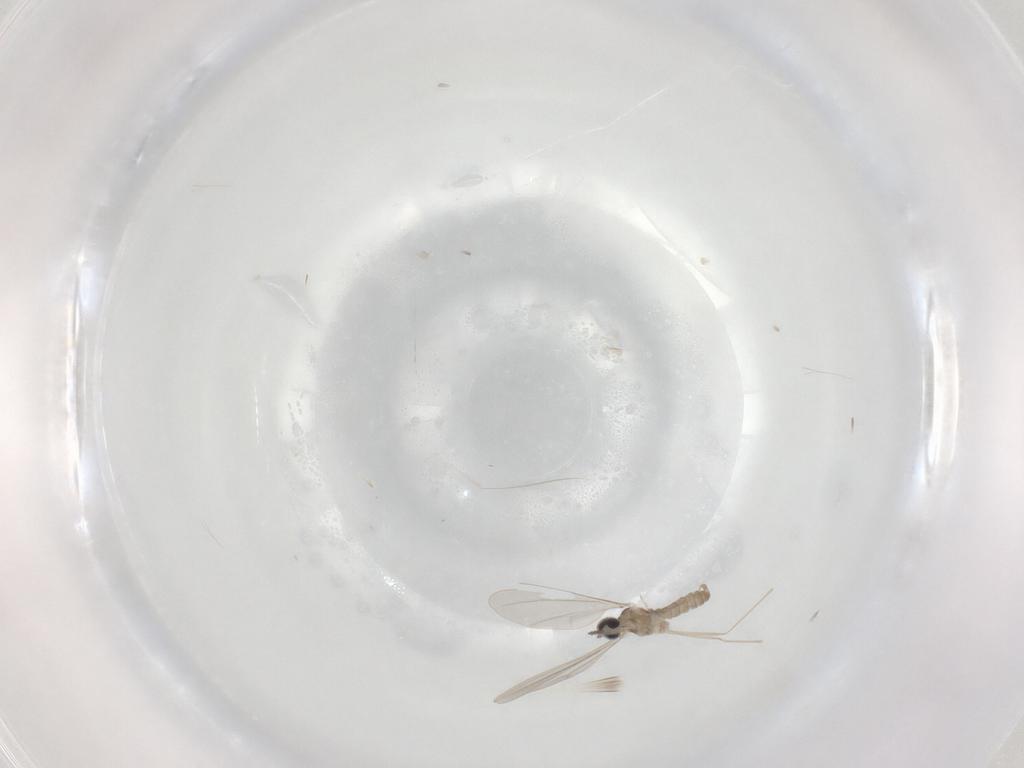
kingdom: Animalia
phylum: Arthropoda
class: Insecta
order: Diptera
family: Cecidomyiidae
